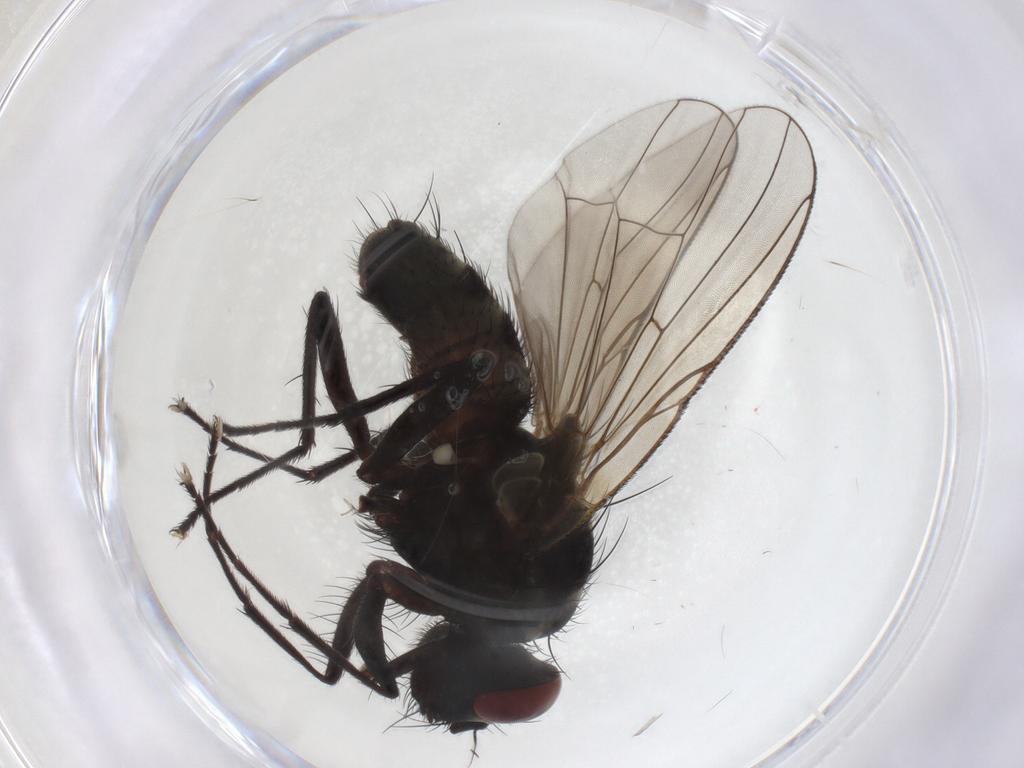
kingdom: Animalia
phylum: Arthropoda
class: Insecta
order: Diptera
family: Muscidae
